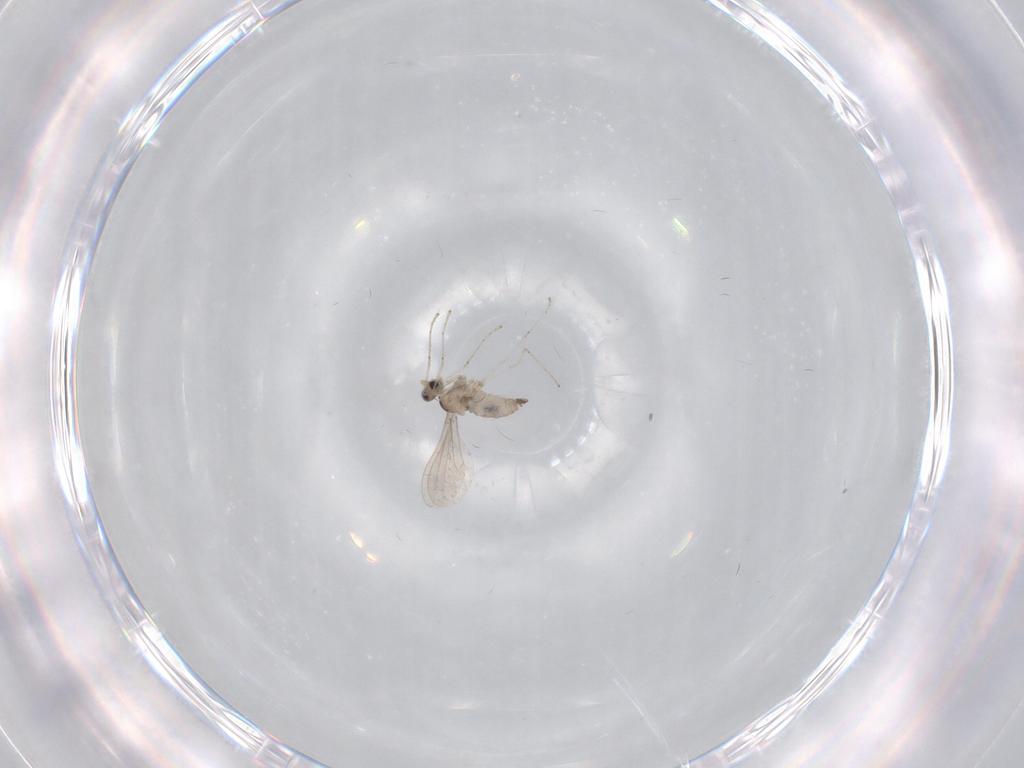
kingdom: Animalia
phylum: Arthropoda
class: Insecta
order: Diptera
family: Cecidomyiidae
